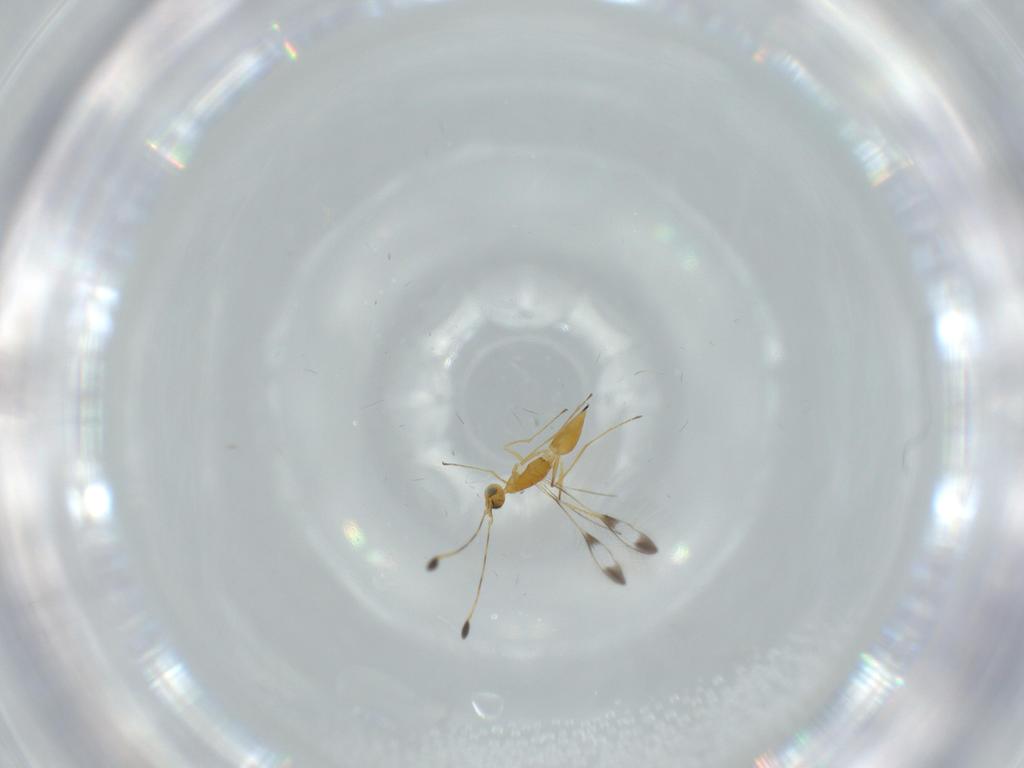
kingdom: Animalia
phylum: Arthropoda
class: Insecta
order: Hymenoptera
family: Mymaridae
